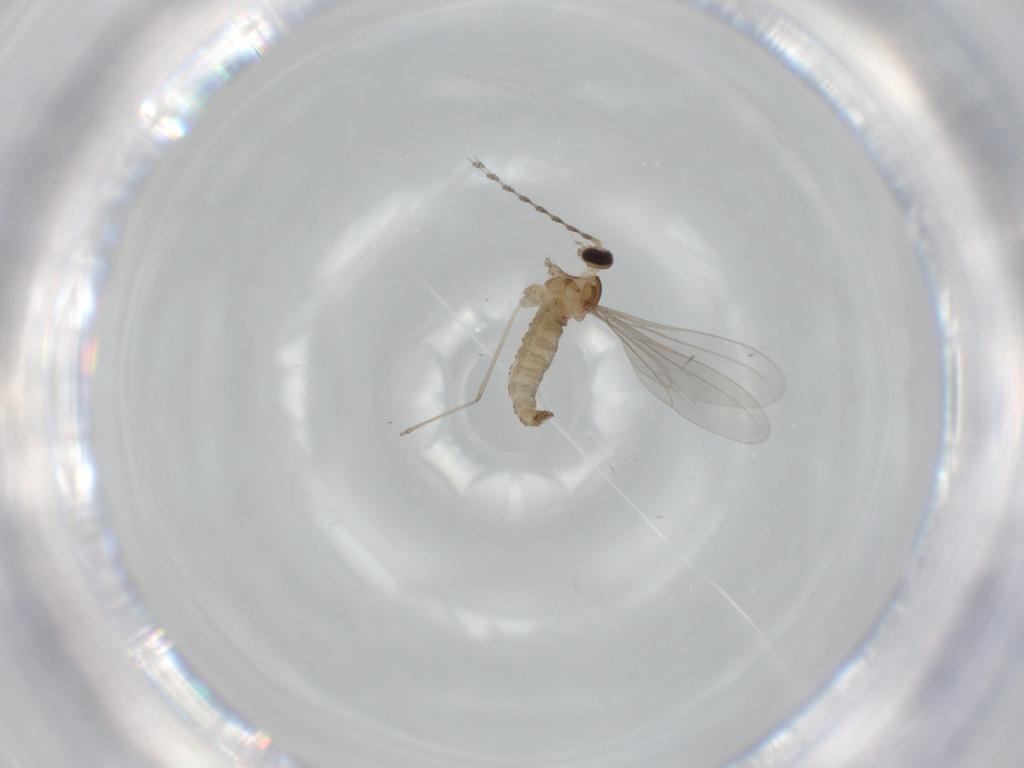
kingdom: Animalia
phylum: Arthropoda
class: Insecta
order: Diptera
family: Cecidomyiidae
